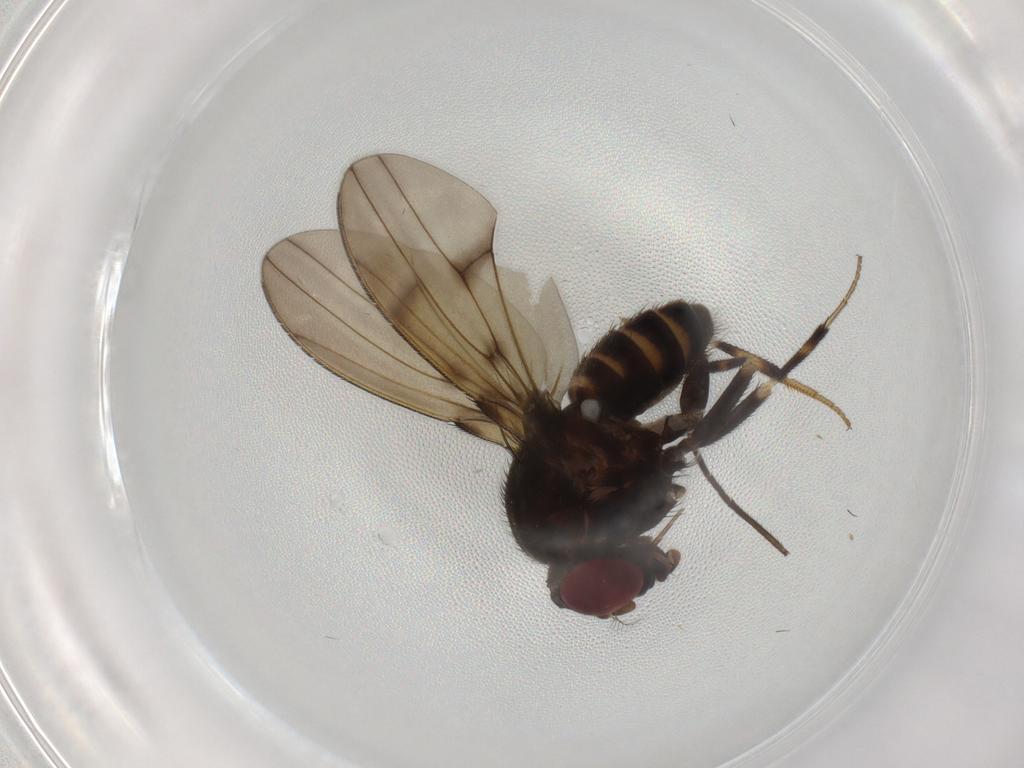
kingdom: Animalia
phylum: Arthropoda
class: Insecta
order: Diptera
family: Drosophilidae
